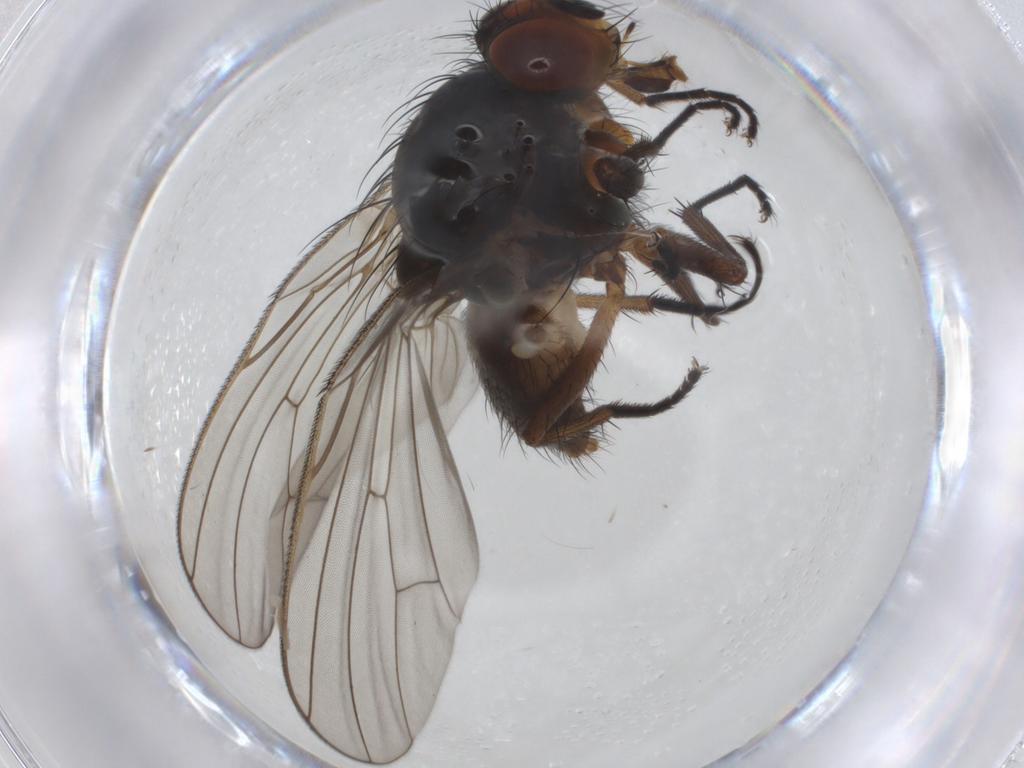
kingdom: Animalia
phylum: Arthropoda
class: Insecta
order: Diptera
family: Anthomyiidae
